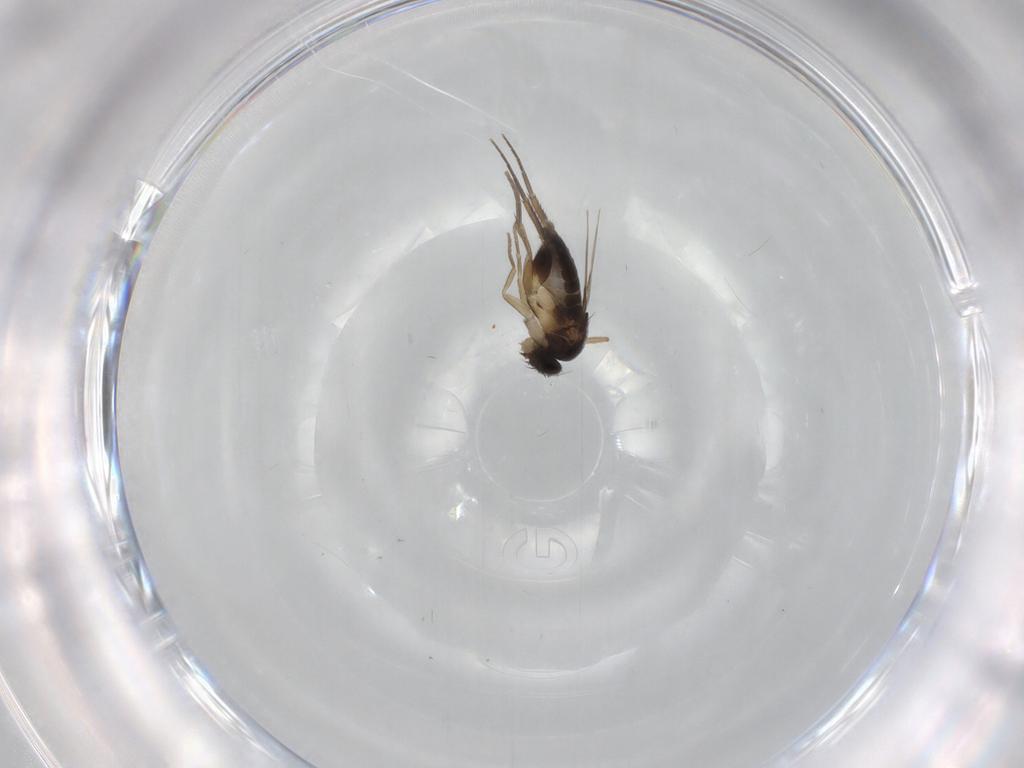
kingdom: Animalia
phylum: Arthropoda
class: Insecta
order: Diptera
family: Phoridae
